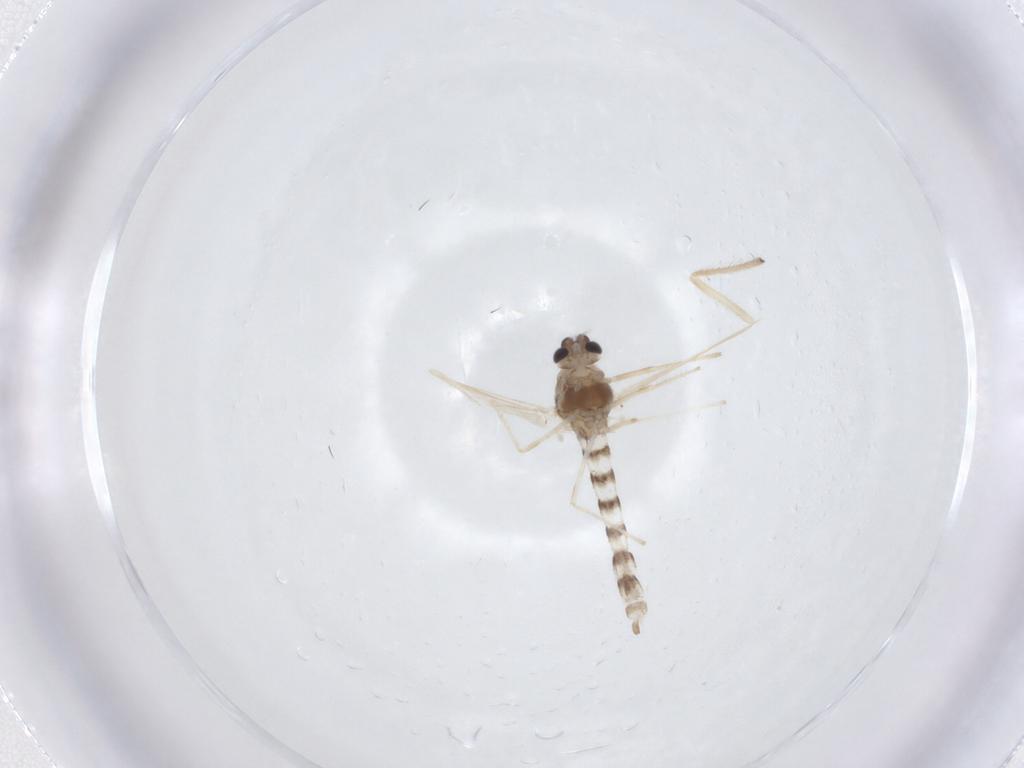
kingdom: Animalia
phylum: Arthropoda
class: Insecta
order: Diptera
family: Chironomidae
